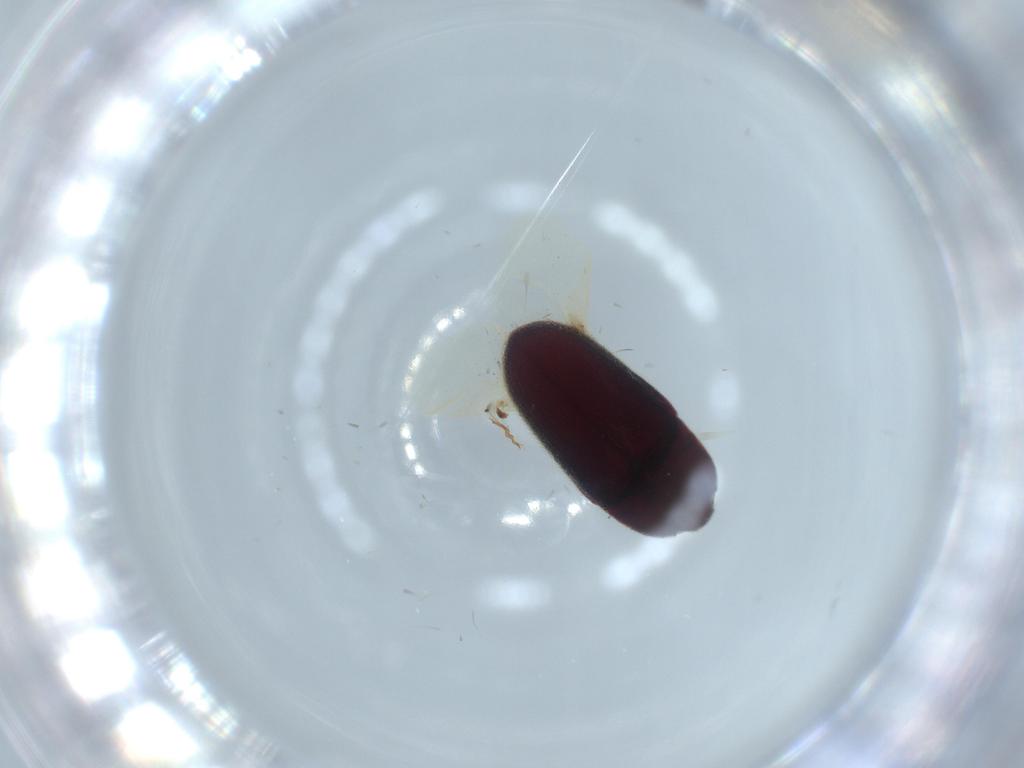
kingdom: Animalia
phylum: Arthropoda
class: Insecta
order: Coleoptera
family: Throscidae
